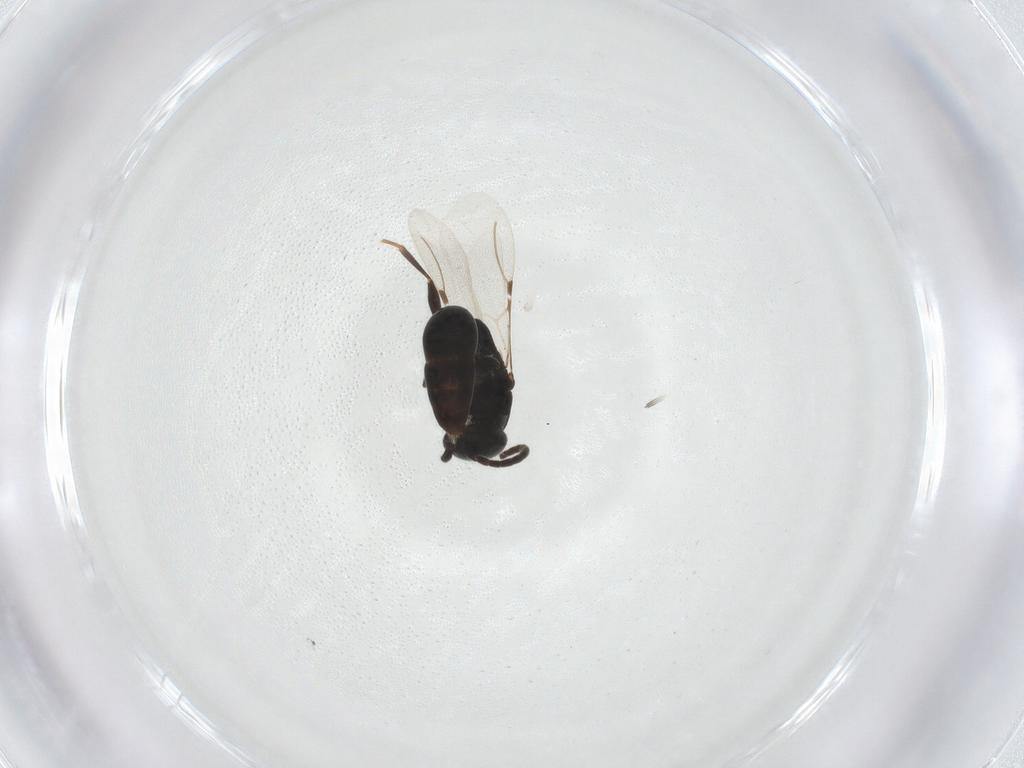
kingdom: Animalia
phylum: Arthropoda
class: Insecta
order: Hymenoptera
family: Bethylidae
